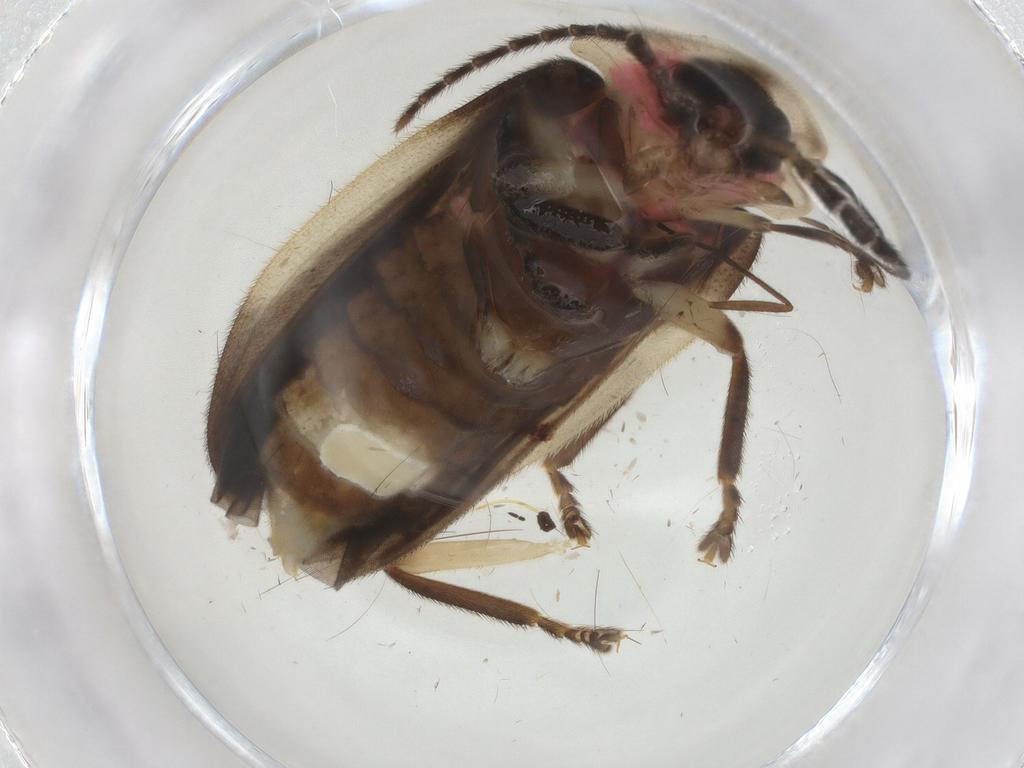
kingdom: Animalia
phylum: Arthropoda
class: Insecta
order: Coleoptera
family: Lampyridae
